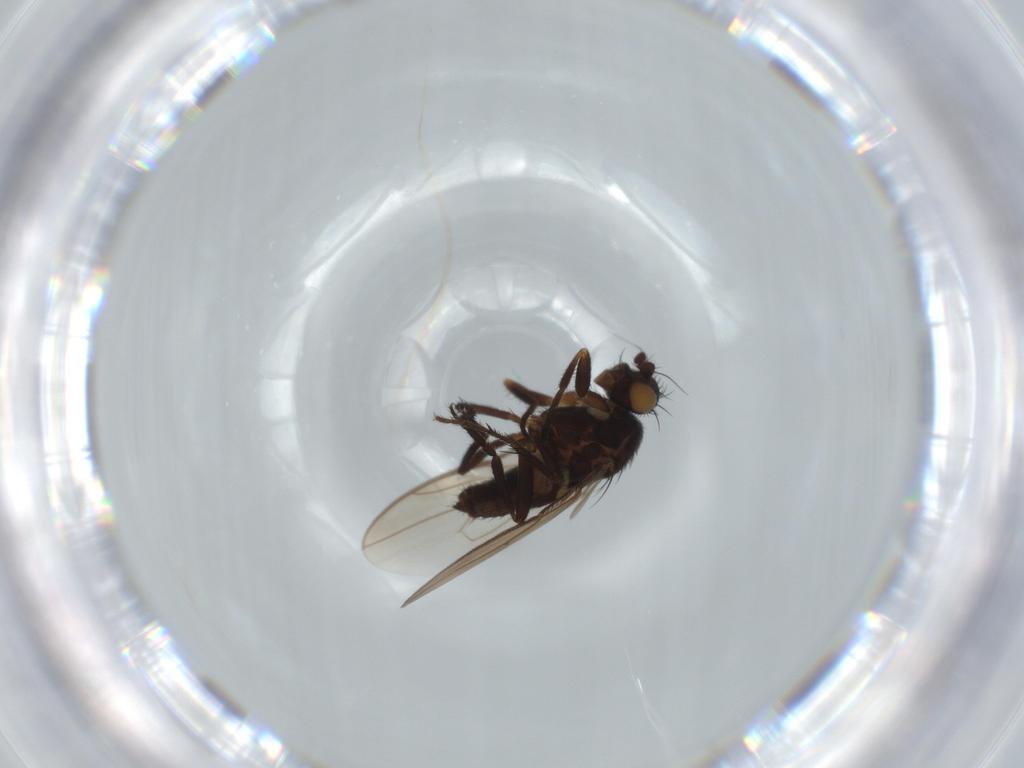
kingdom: Animalia
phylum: Arthropoda
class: Insecta
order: Diptera
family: Sphaeroceridae
